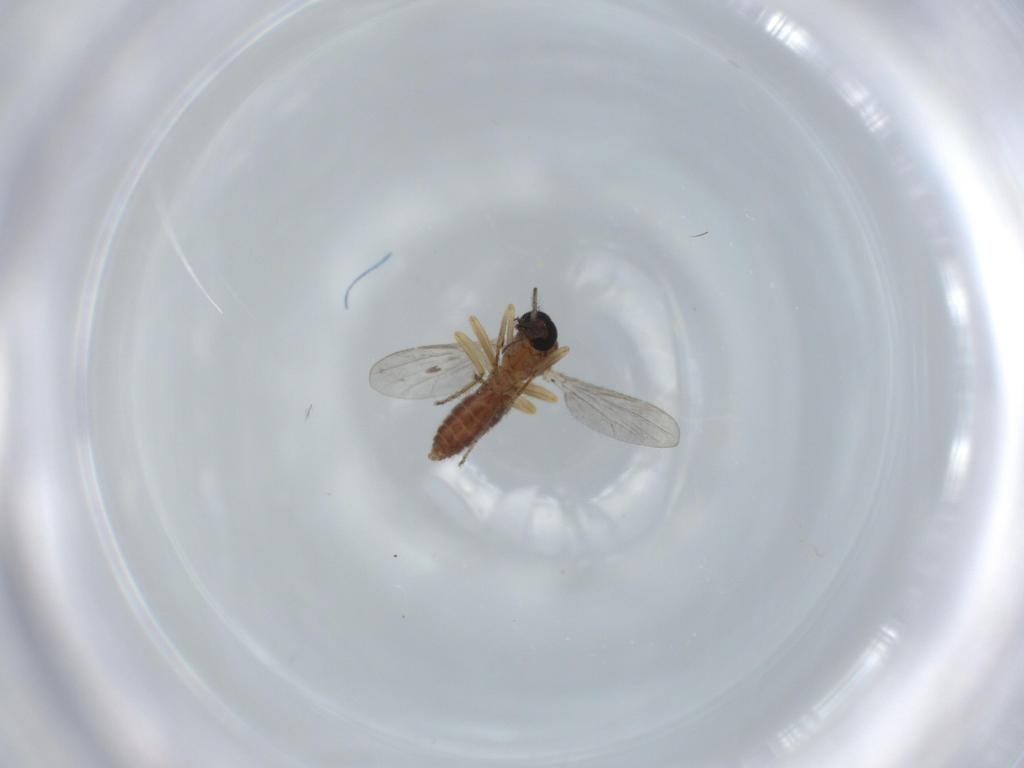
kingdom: Animalia
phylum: Arthropoda
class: Insecta
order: Diptera
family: Ceratopogonidae
